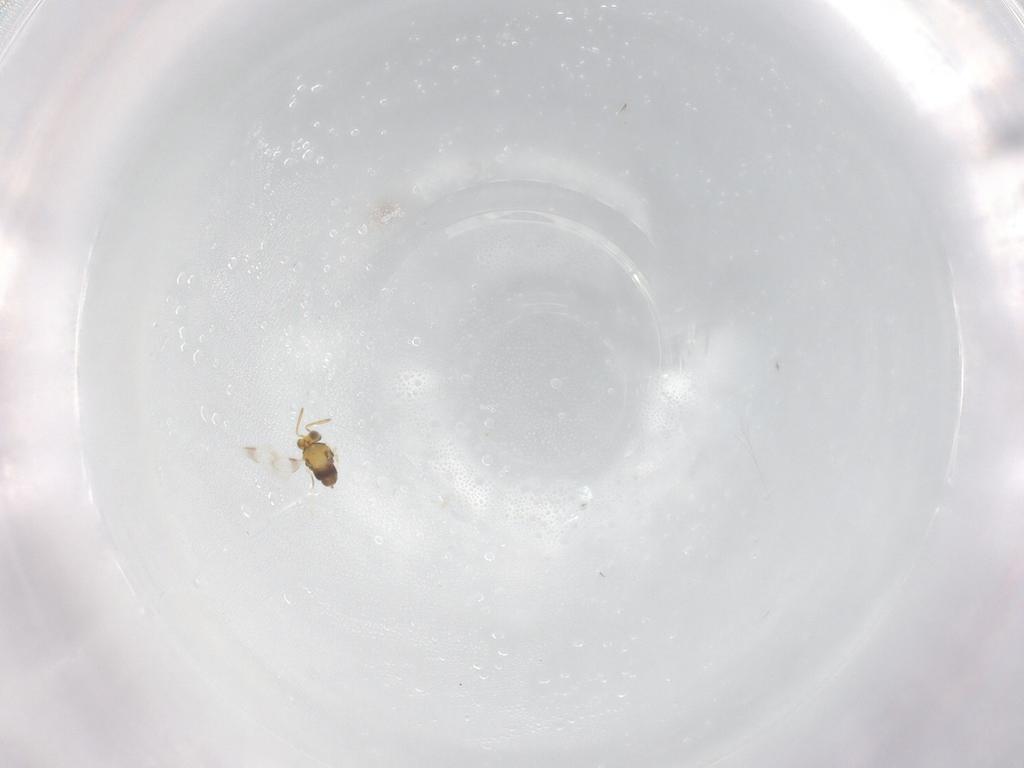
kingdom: Animalia
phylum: Arthropoda
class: Insecta
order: Hymenoptera
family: Aphelinidae
